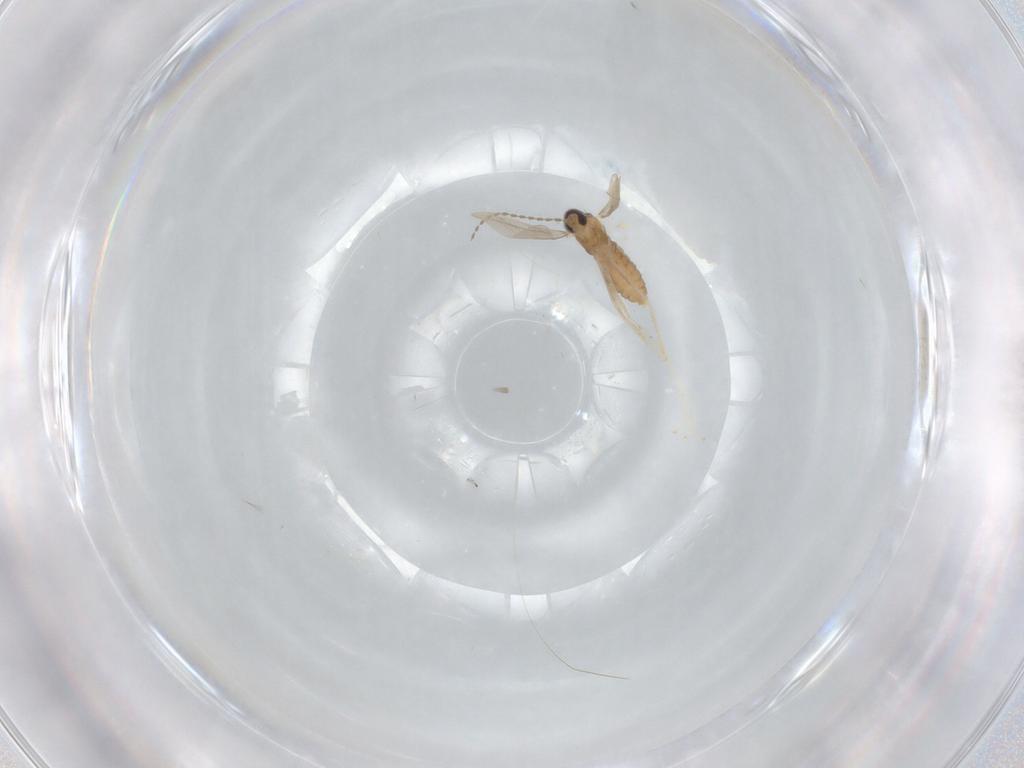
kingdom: Animalia
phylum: Arthropoda
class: Insecta
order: Diptera
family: Cecidomyiidae
